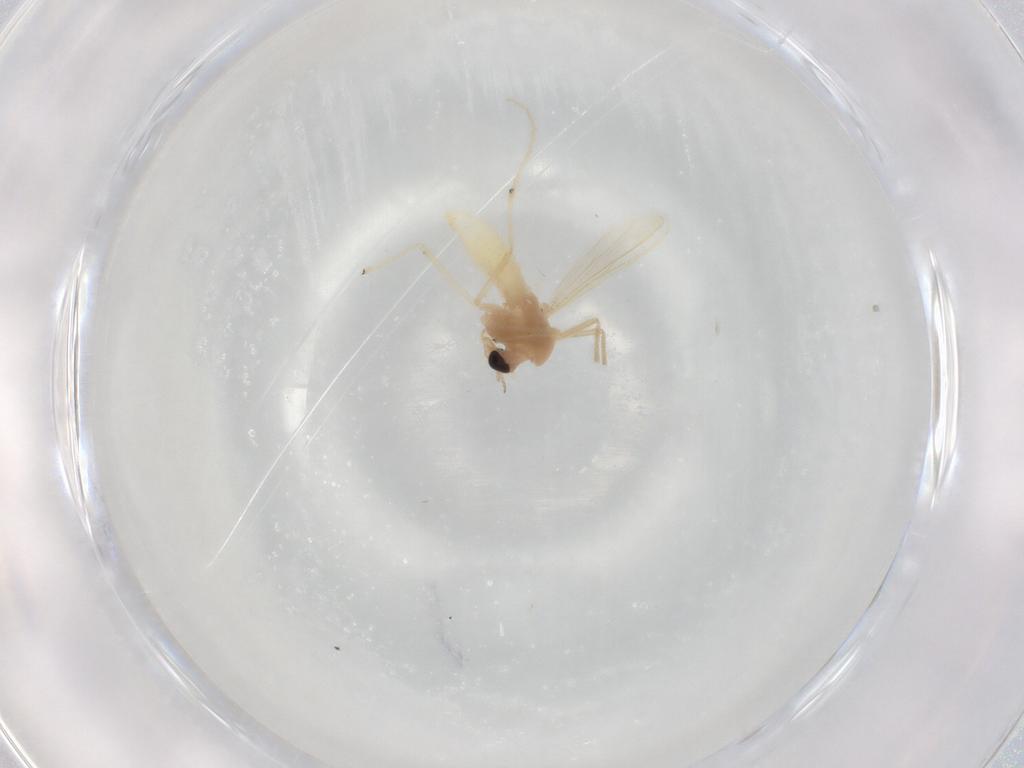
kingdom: Animalia
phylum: Arthropoda
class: Insecta
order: Diptera
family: Chironomidae
